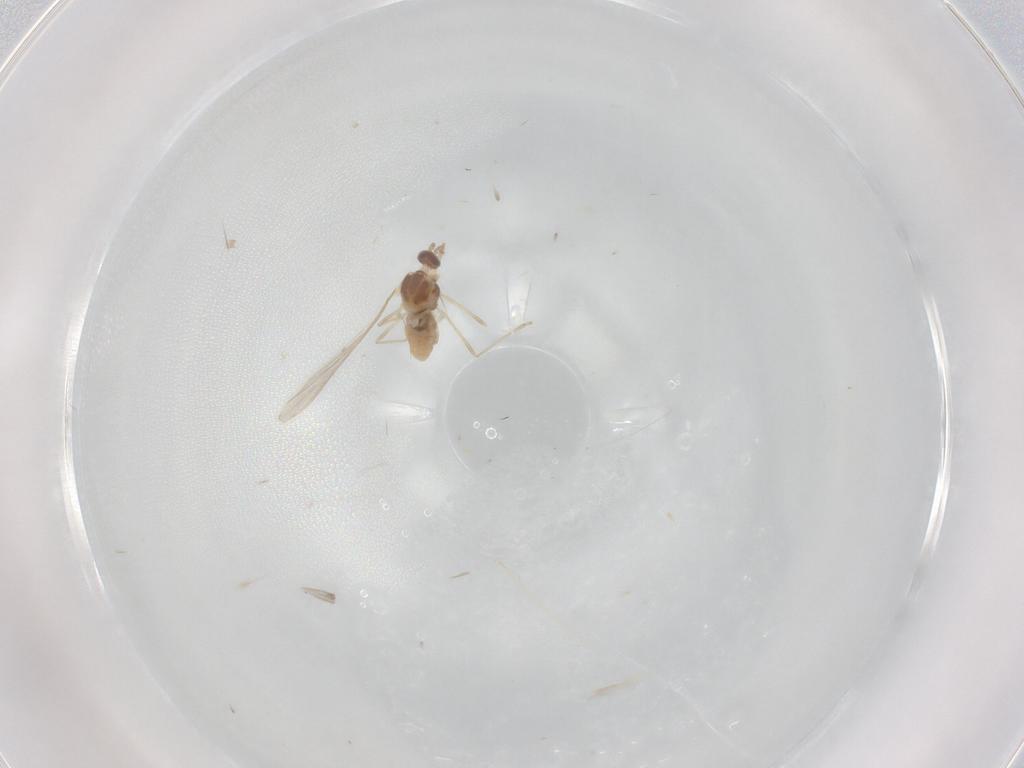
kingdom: Animalia
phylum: Arthropoda
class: Insecta
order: Diptera
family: Cecidomyiidae
